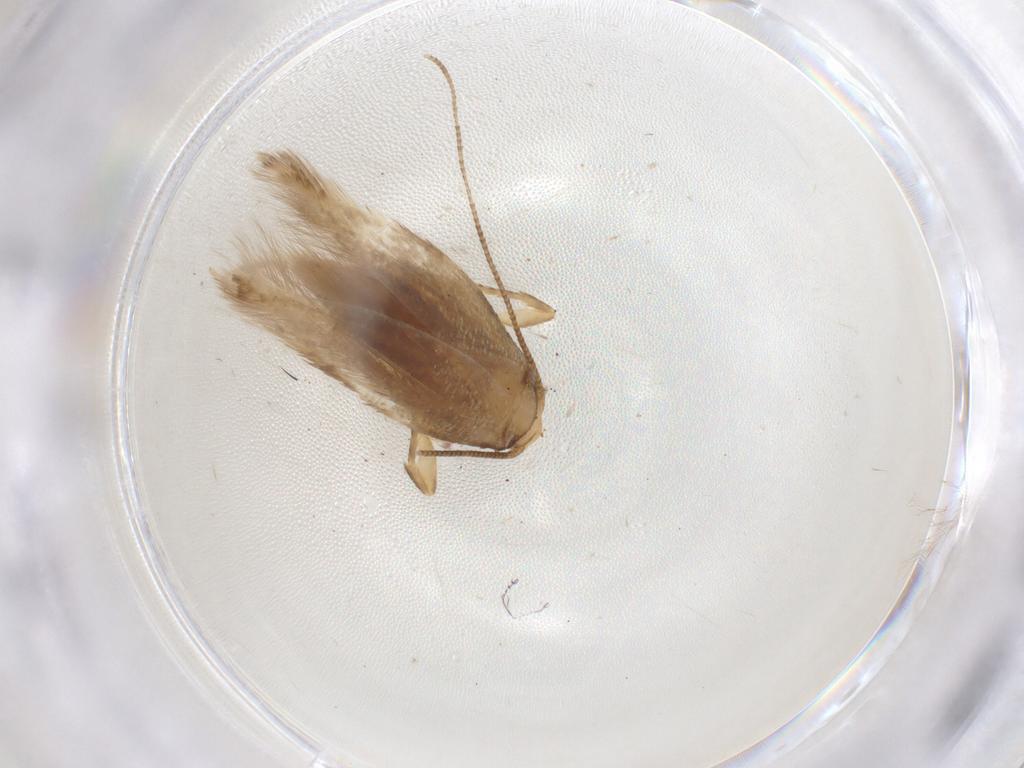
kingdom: Animalia
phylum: Arthropoda
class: Insecta
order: Lepidoptera
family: Tineidae
